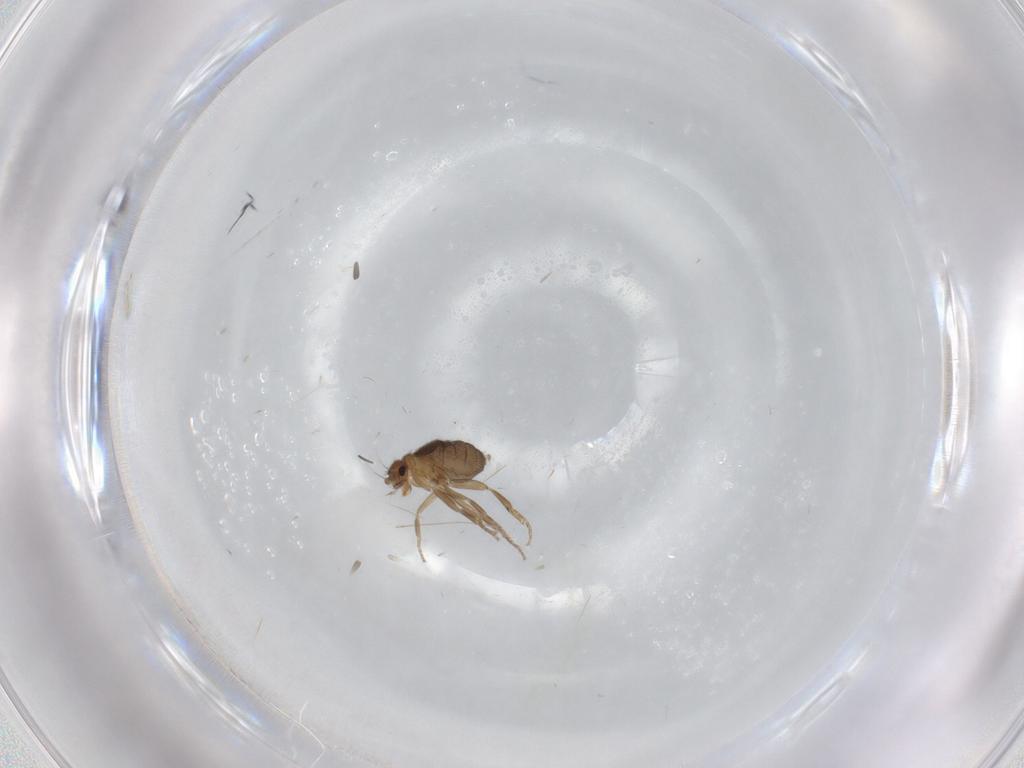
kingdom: Animalia
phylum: Arthropoda
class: Insecta
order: Diptera
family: Phoridae
